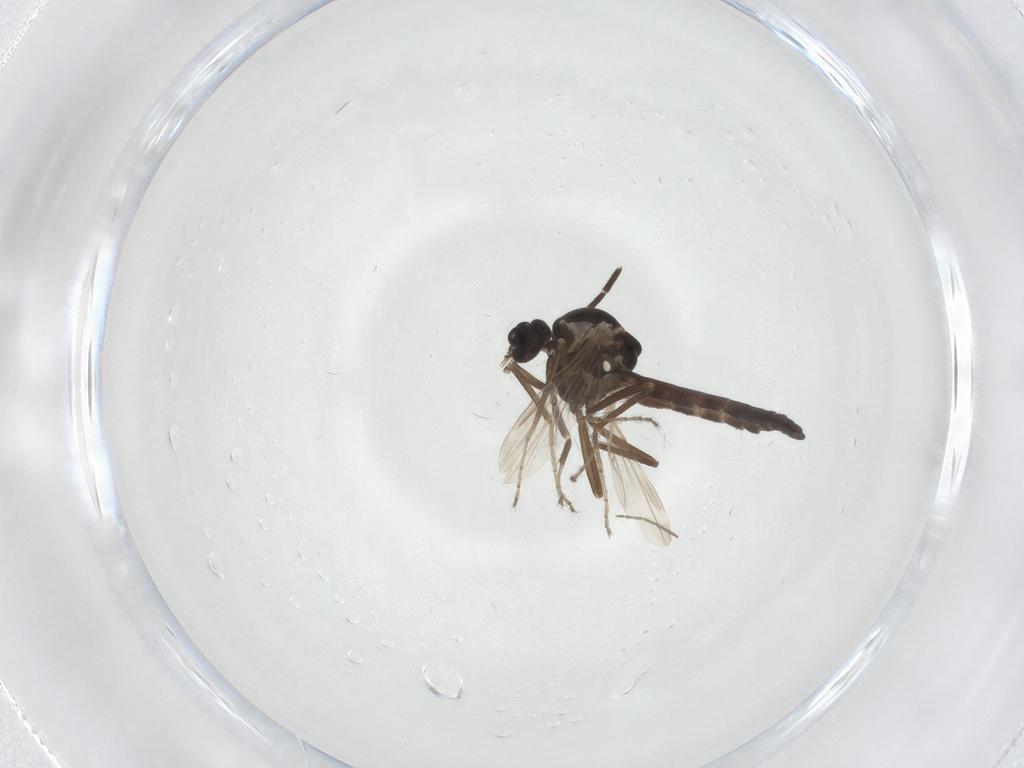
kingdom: Animalia
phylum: Arthropoda
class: Insecta
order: Diptera
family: Ceratopogonidae
